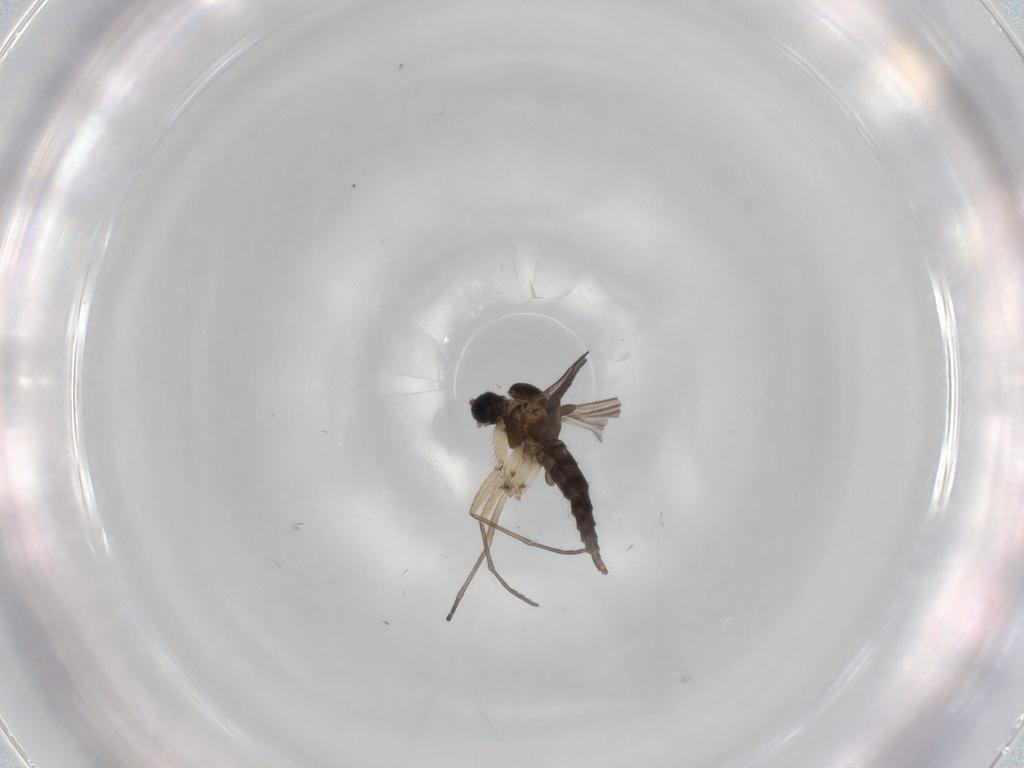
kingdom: Animalia
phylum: Arthropoda
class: Insecta
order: Diptera
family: Sciaridae
